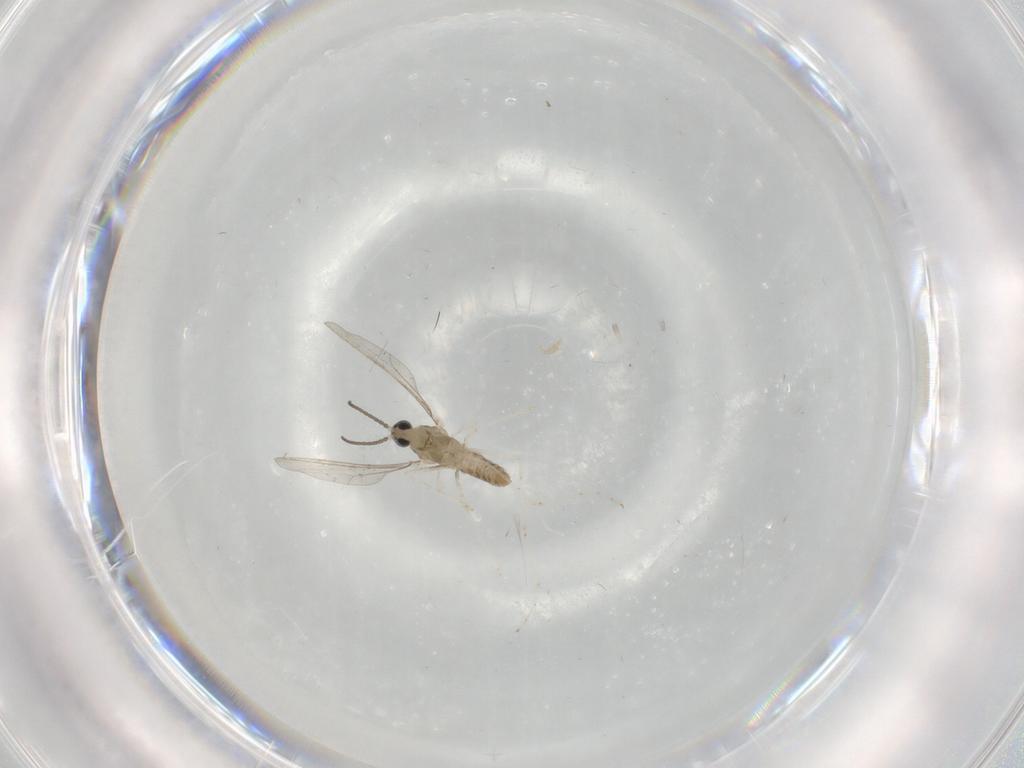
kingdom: Animalia
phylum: Arthropoda
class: Insecta
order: Diptera
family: Cecidomyiidae
